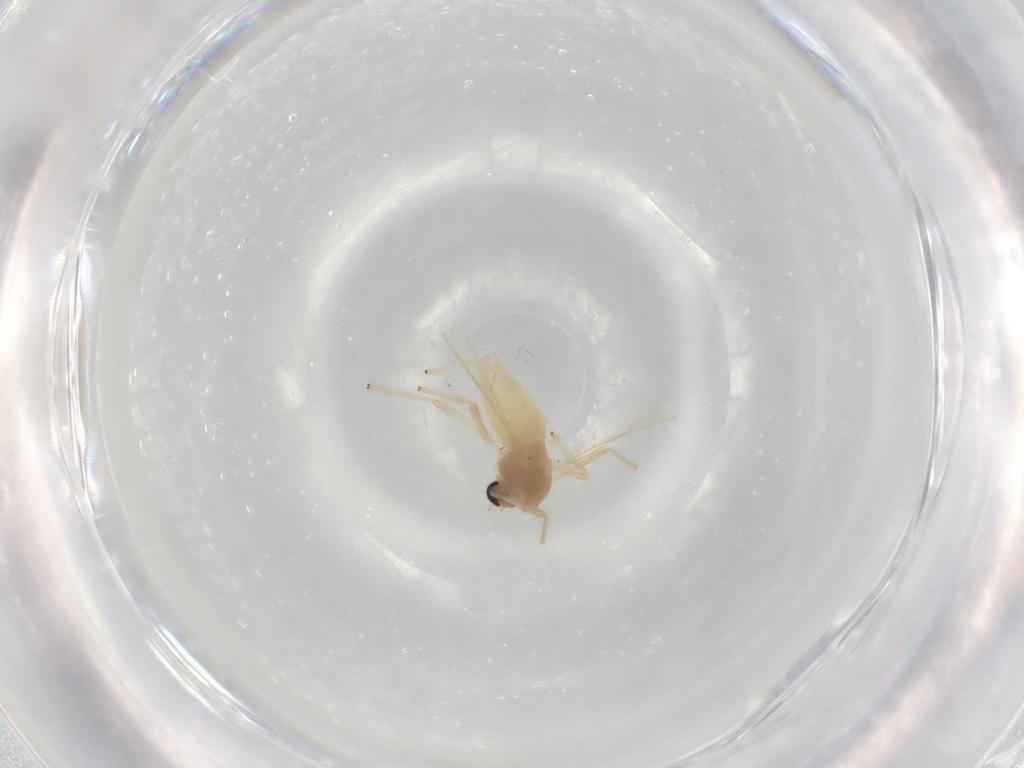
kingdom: Animalia
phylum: Arthropoda
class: Insecta
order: Diptera
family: Chironomidae
